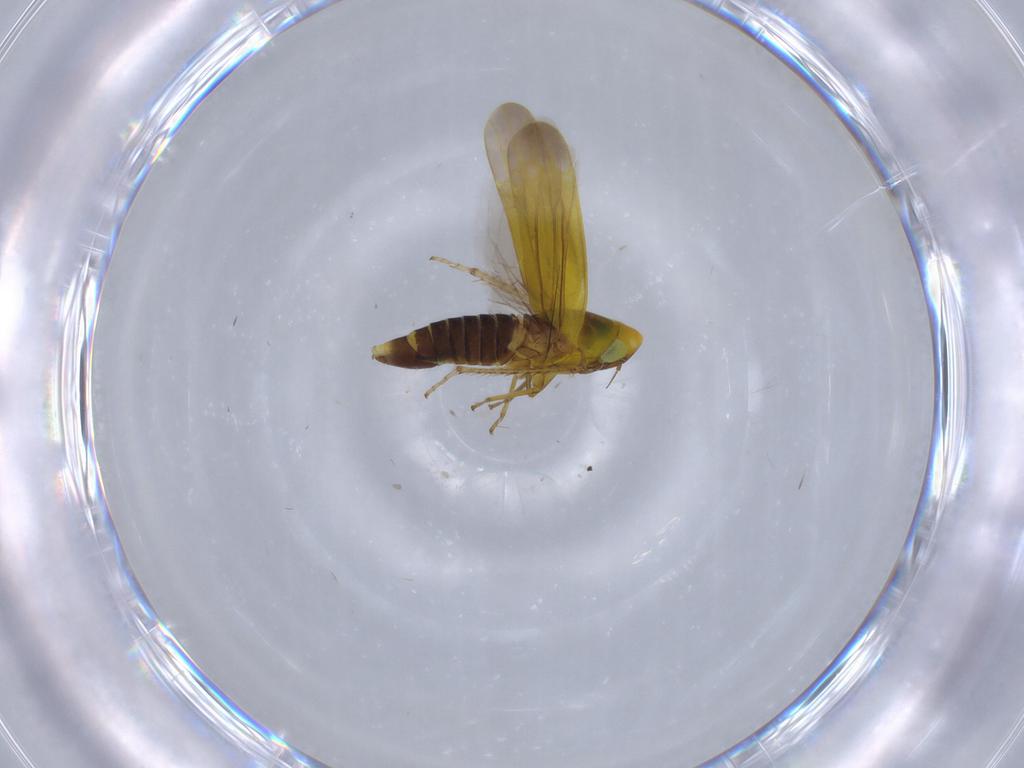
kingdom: Animalia
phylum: Arthropoda
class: Insecta
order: Hemiptera
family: Cicadellidae
